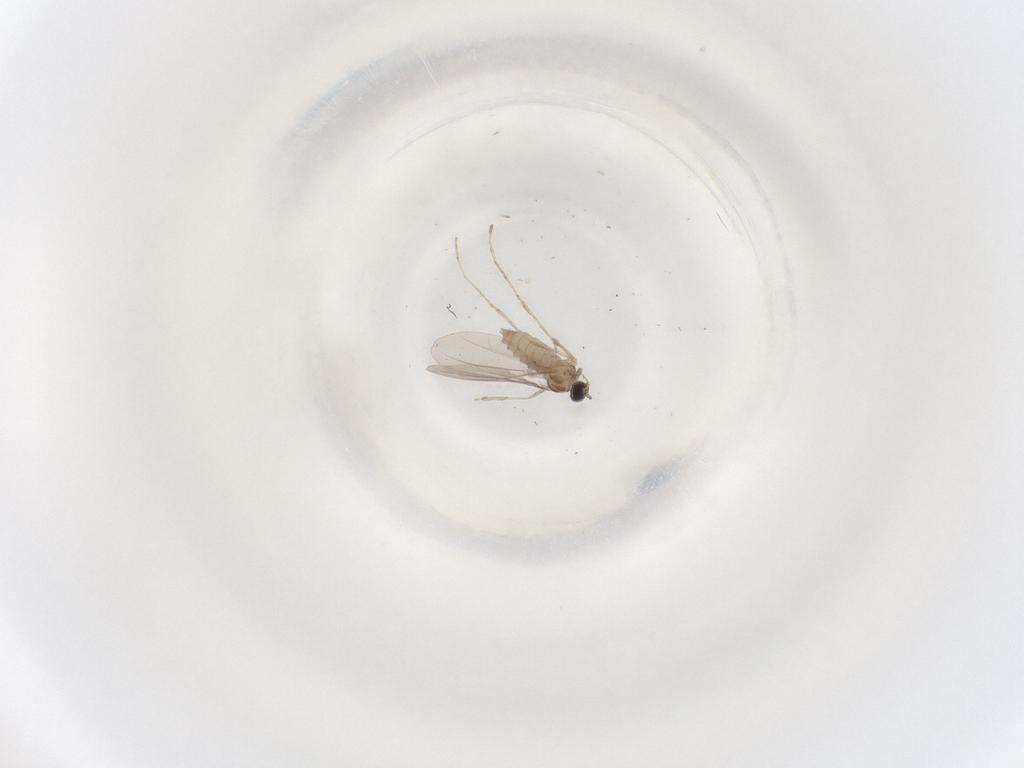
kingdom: Animalia
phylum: Arthropoda
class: Insecta
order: Diptera
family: Cecidomyiidae
